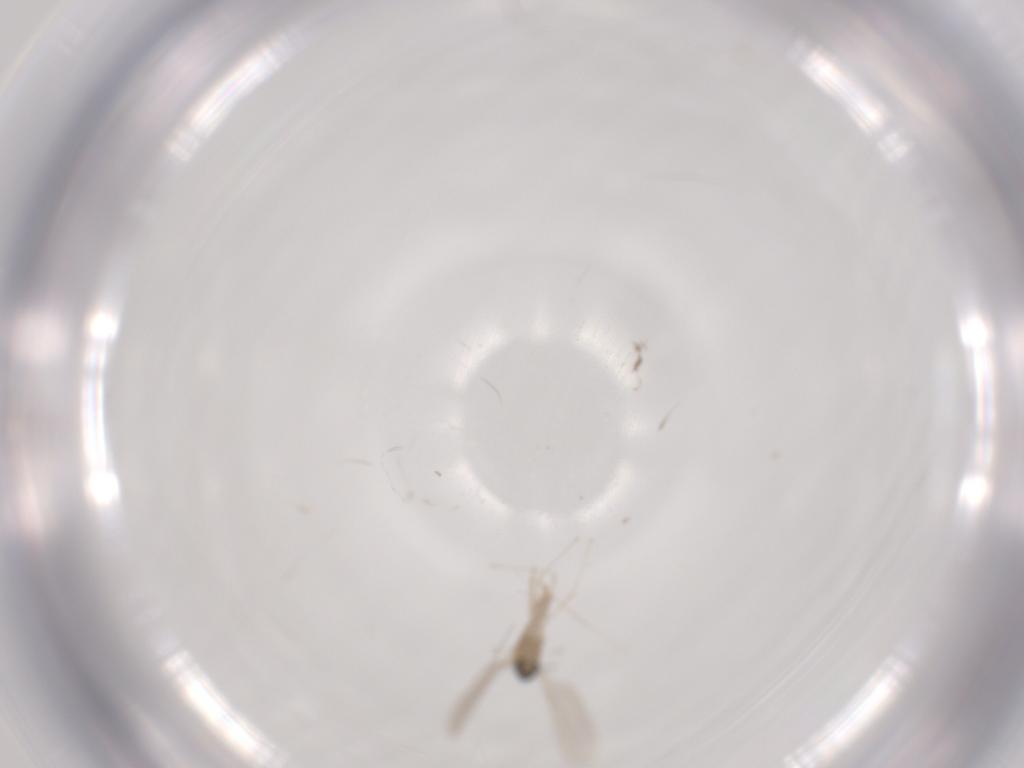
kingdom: Animalia
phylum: Arthropoda
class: Insecta
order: Diptera
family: Cecidomyiidae
